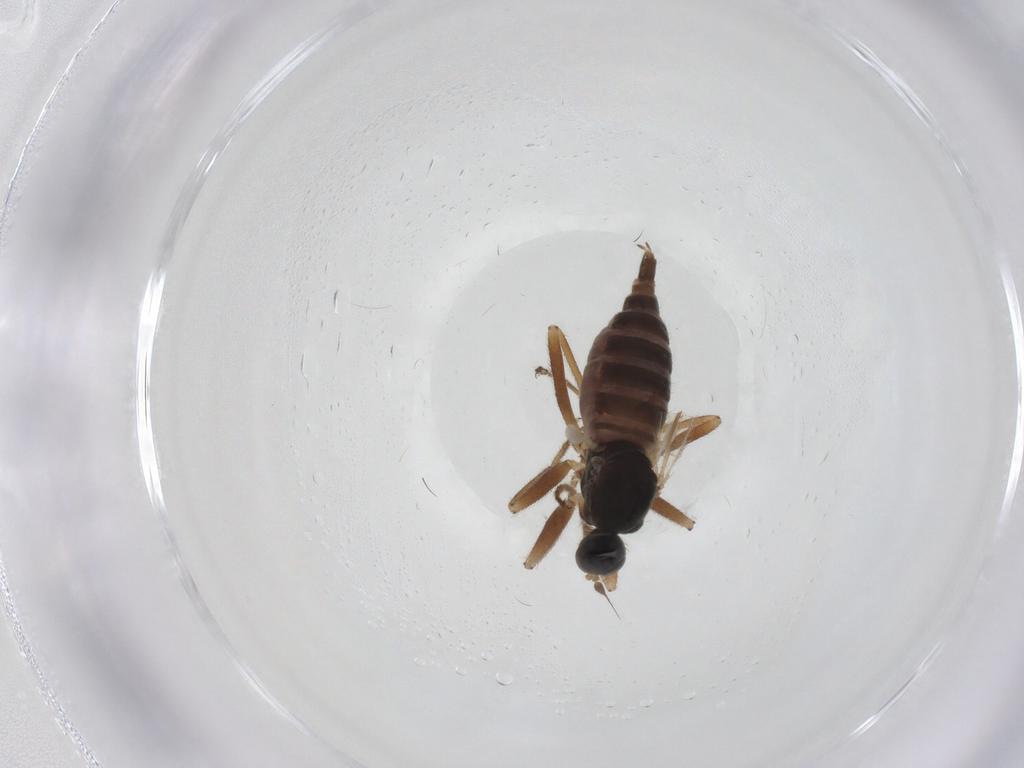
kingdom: Animalia
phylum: Arthropoda
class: Insecta
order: Diptera
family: Hybotidae
